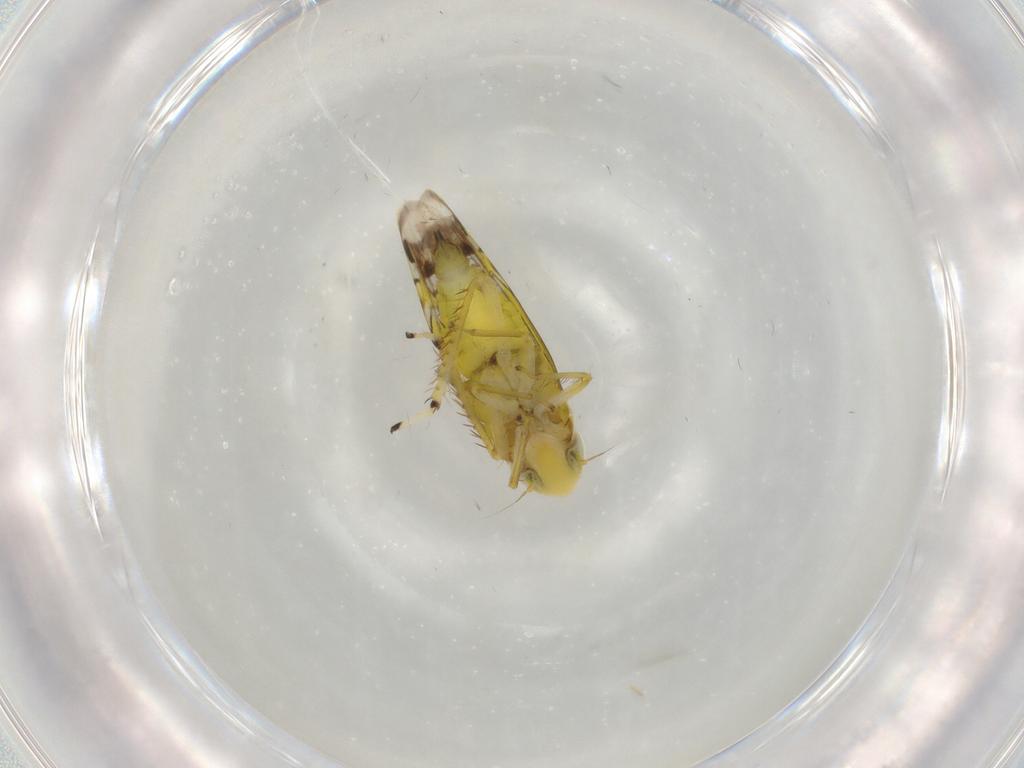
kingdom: Animalia
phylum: Arthropoda
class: Insecta
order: Hemiptera
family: Cicadellidae
